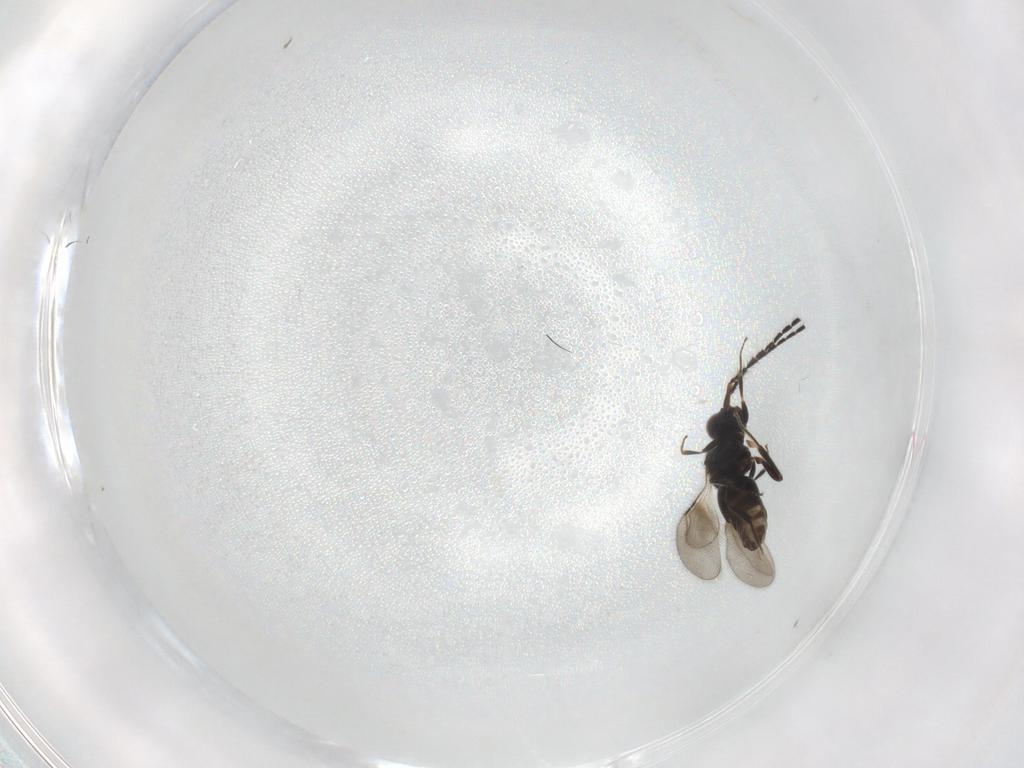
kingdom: Animalia
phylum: Arthropoda
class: Insecta
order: Hymenoptera
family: Ceraphronidae
